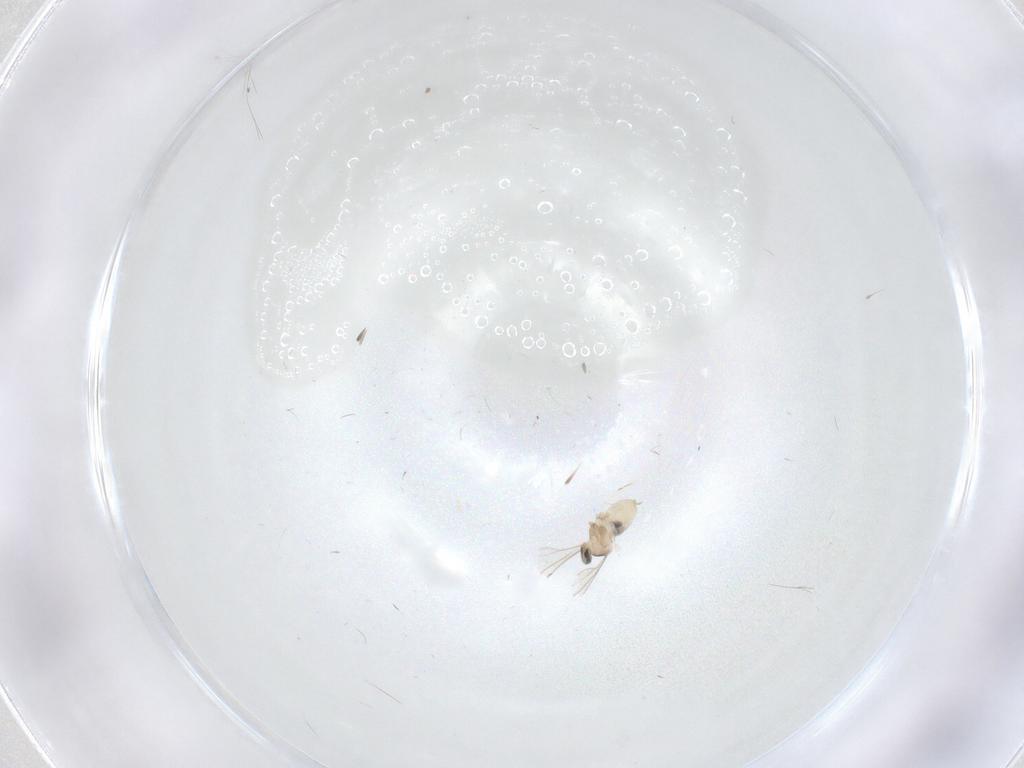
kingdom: Animalia
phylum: Arthropoda
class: Insecta
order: Diptera
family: Cecidomyiidae
